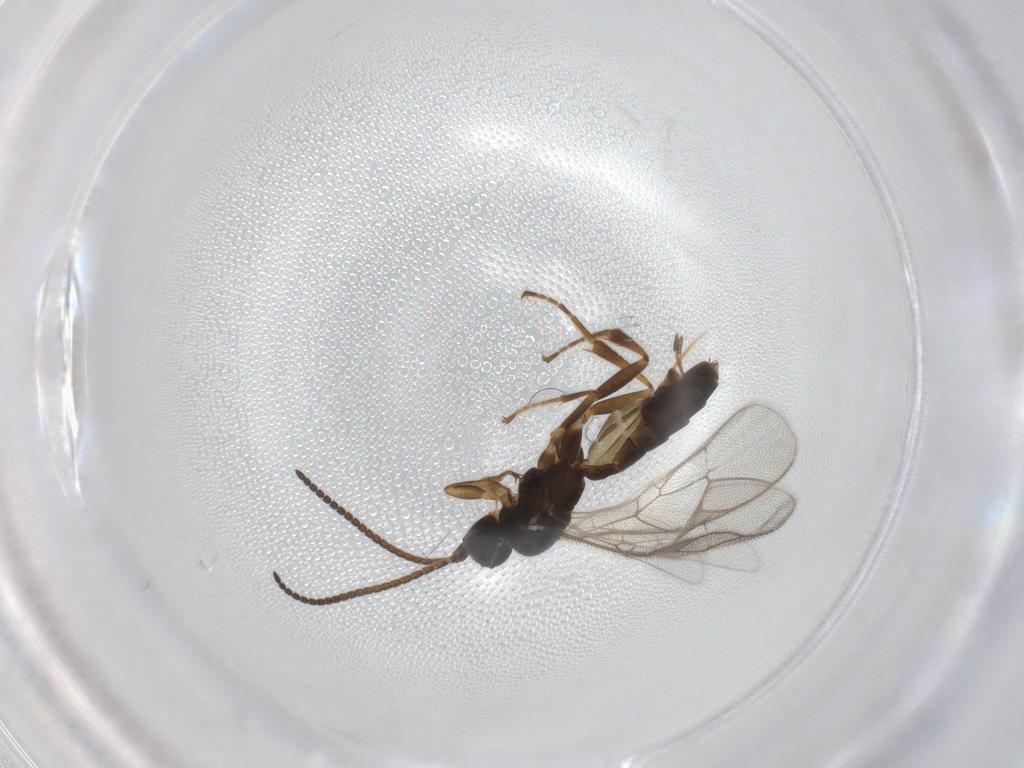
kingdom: Animalia
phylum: Arthropoda
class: Insecta
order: Hymenoptera
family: Ichneumonidae
